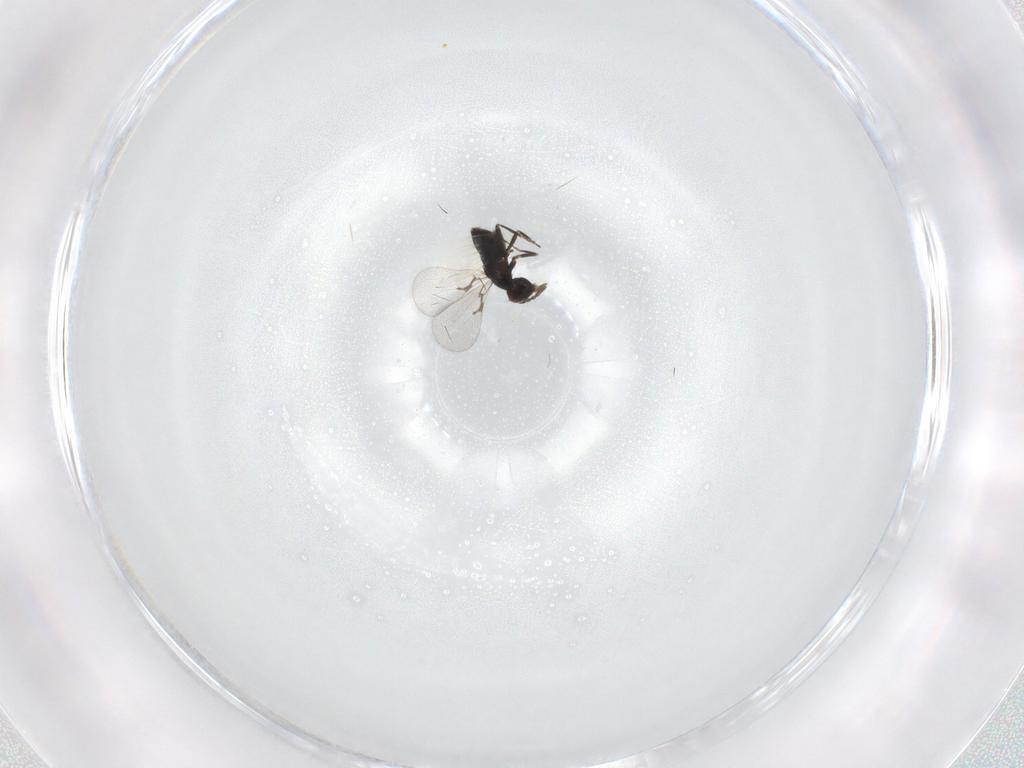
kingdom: Animalia
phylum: Arthropoda
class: Insecta
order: Hymenoptera
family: Trichogrammatidae
